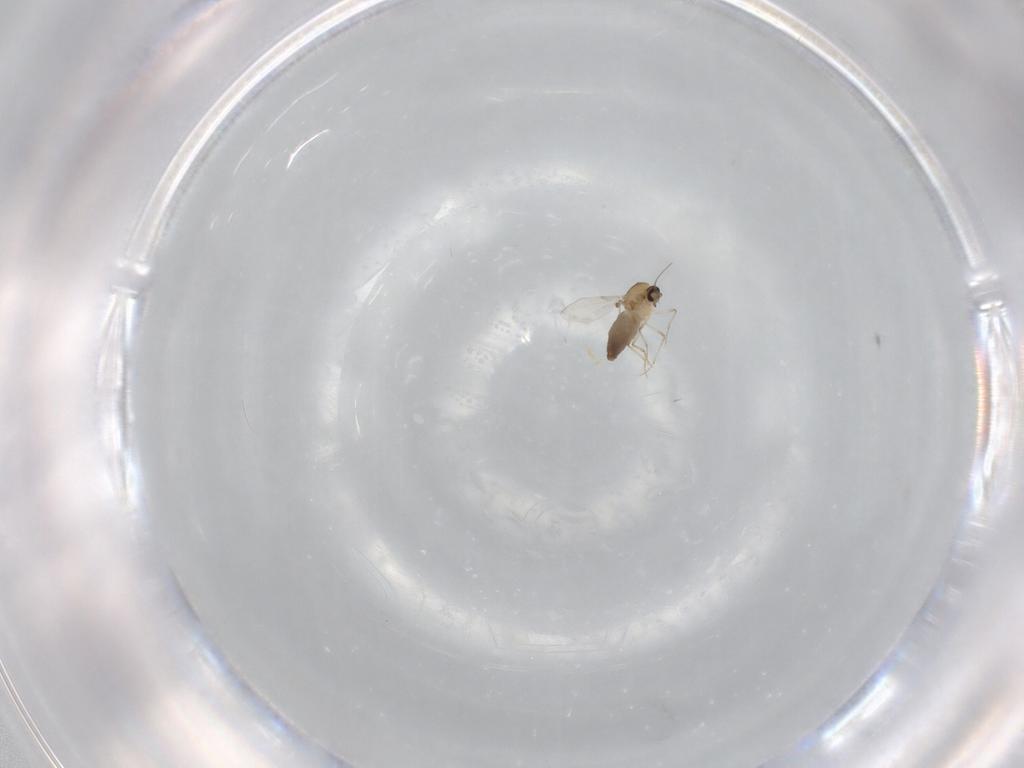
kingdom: Animalia
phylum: Arthropoda
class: Insecta
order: Diptera
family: Ceratopogonidae
